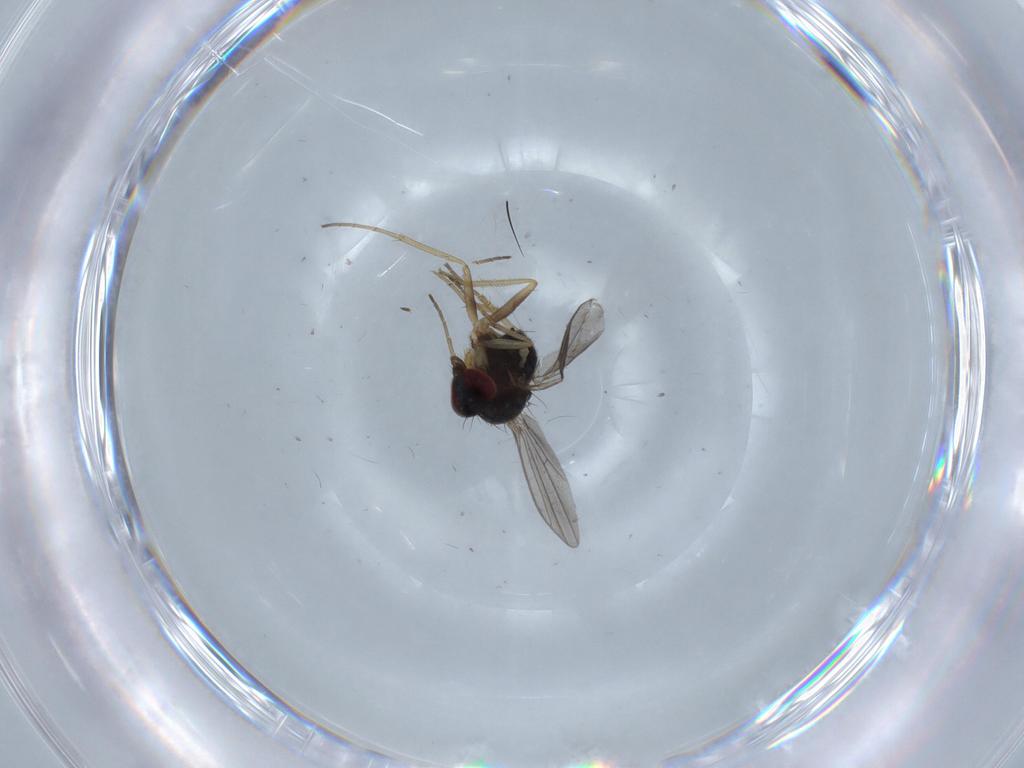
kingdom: Animalia
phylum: Arthropoda
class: Insecta
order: Diptera
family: Dolichopodidae
